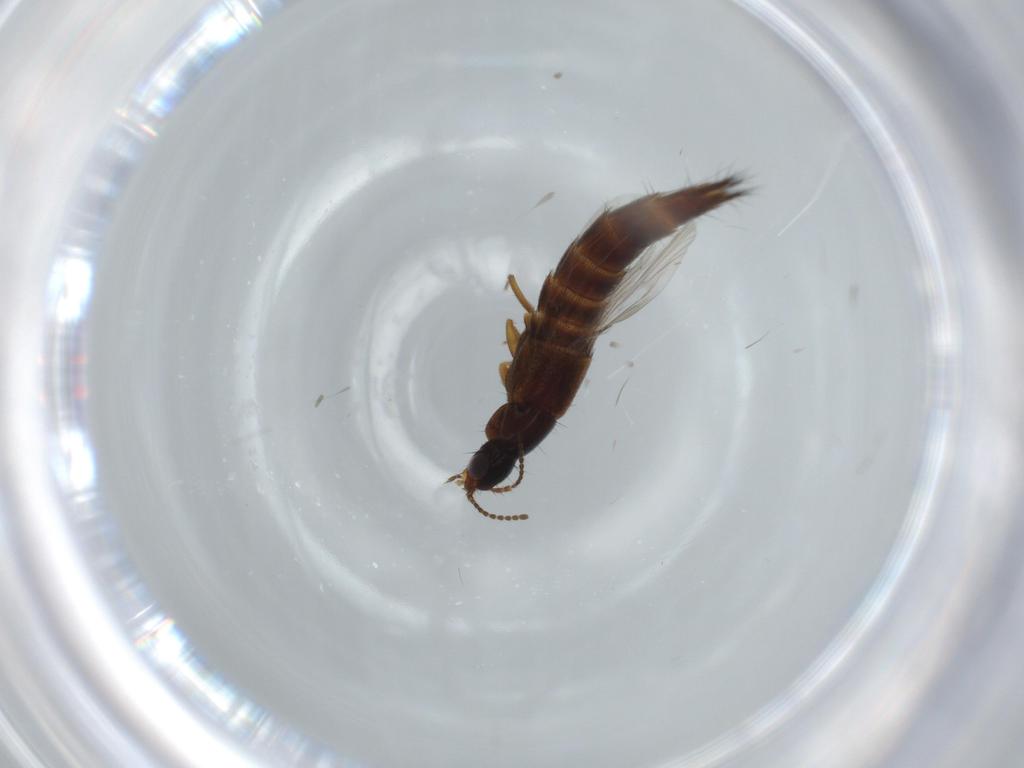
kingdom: Animalia
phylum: Arthropoda
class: Insecta
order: Coleoptera
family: Staphylinidae
